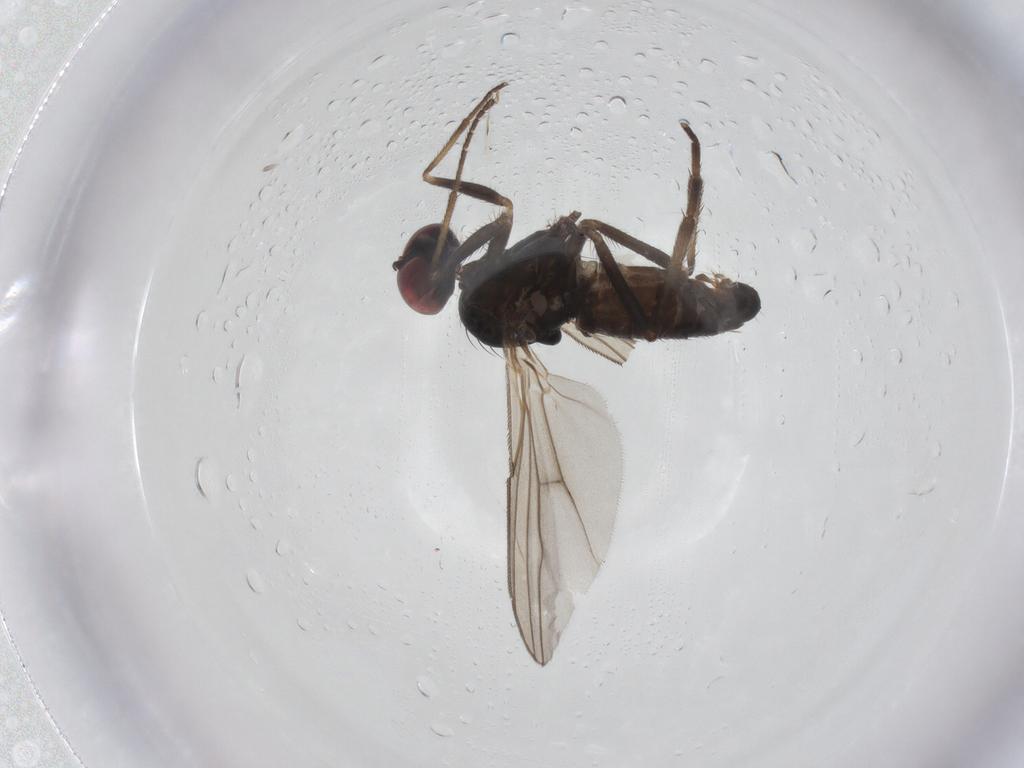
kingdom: Animalia
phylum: Arthropoda
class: Insecta
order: Diptera
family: Dolichopodidae
